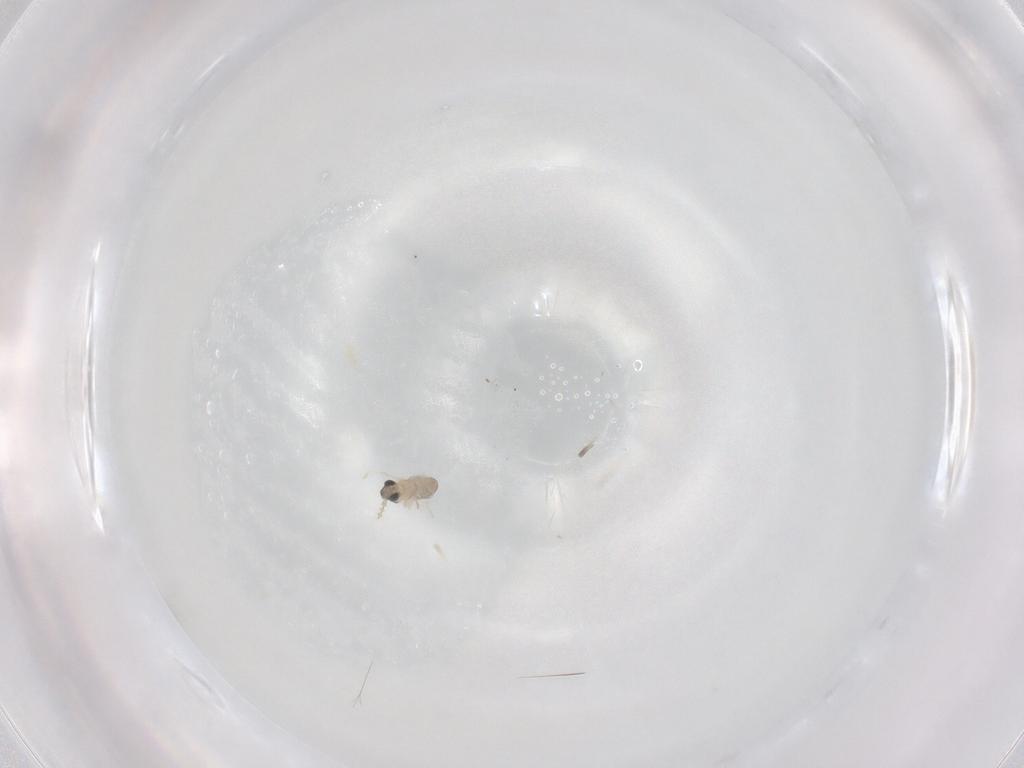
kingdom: Animalia
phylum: Arthropoda
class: Insecta
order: Diptera
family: Cecidomyiidae
